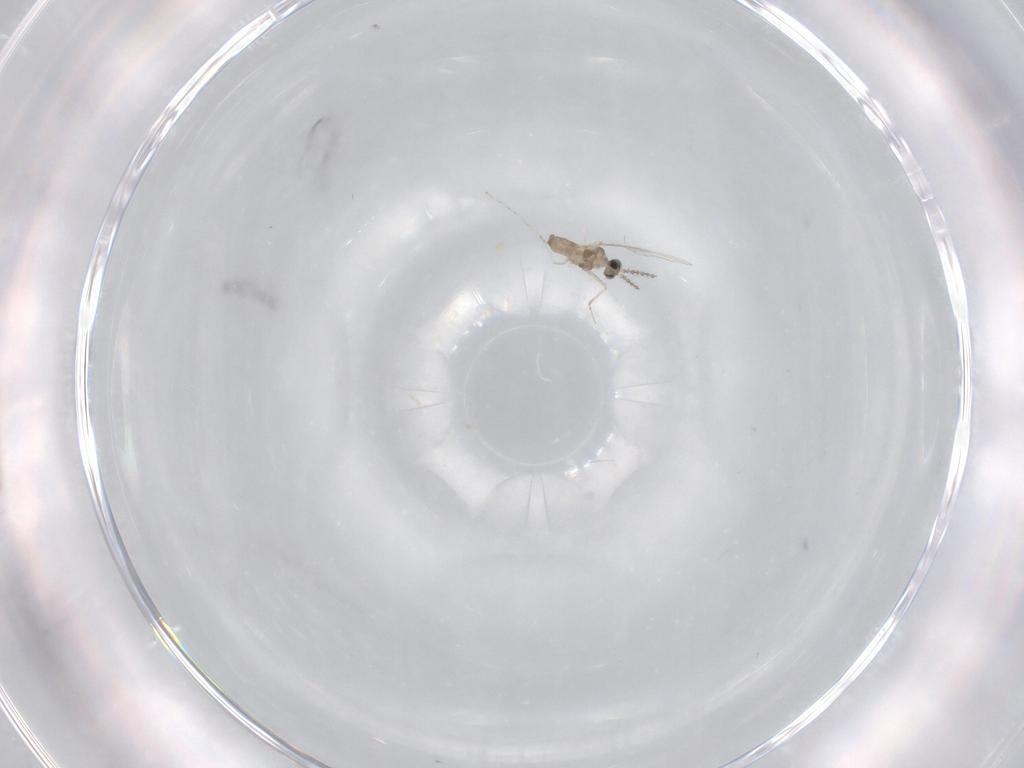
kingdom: Animalia
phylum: Arthropoda
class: Insecta
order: Diptera
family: Cecidomyiidae
